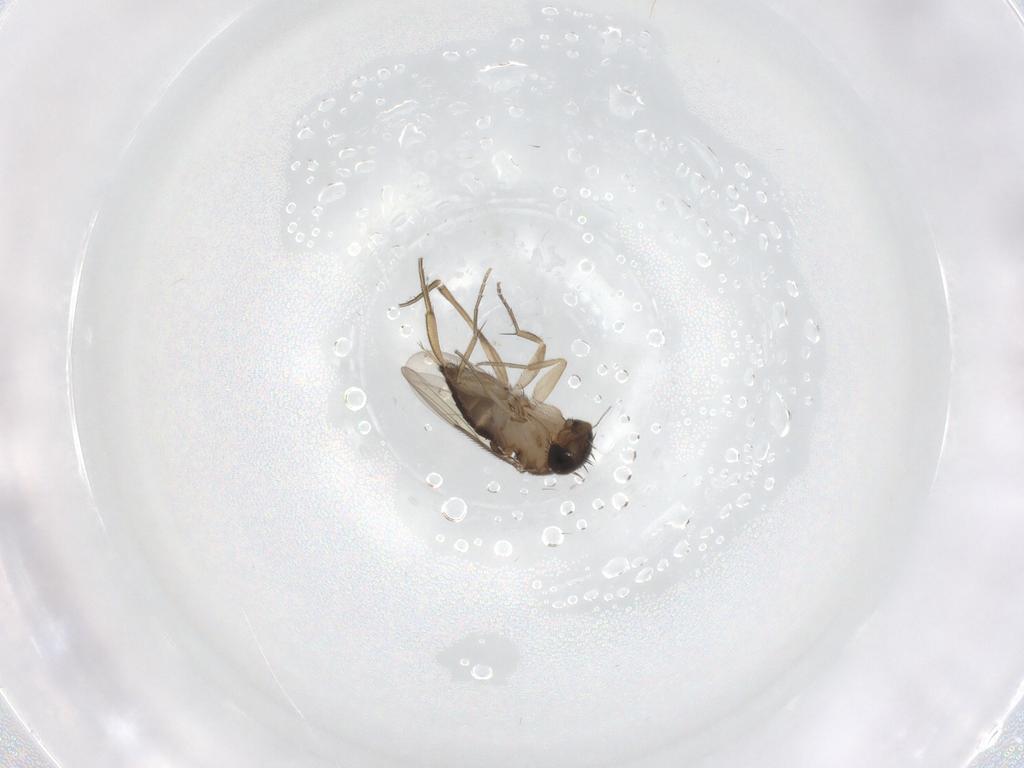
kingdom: Animalia
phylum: Arthropoda
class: Insecta
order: Diptera
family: Phoridae
